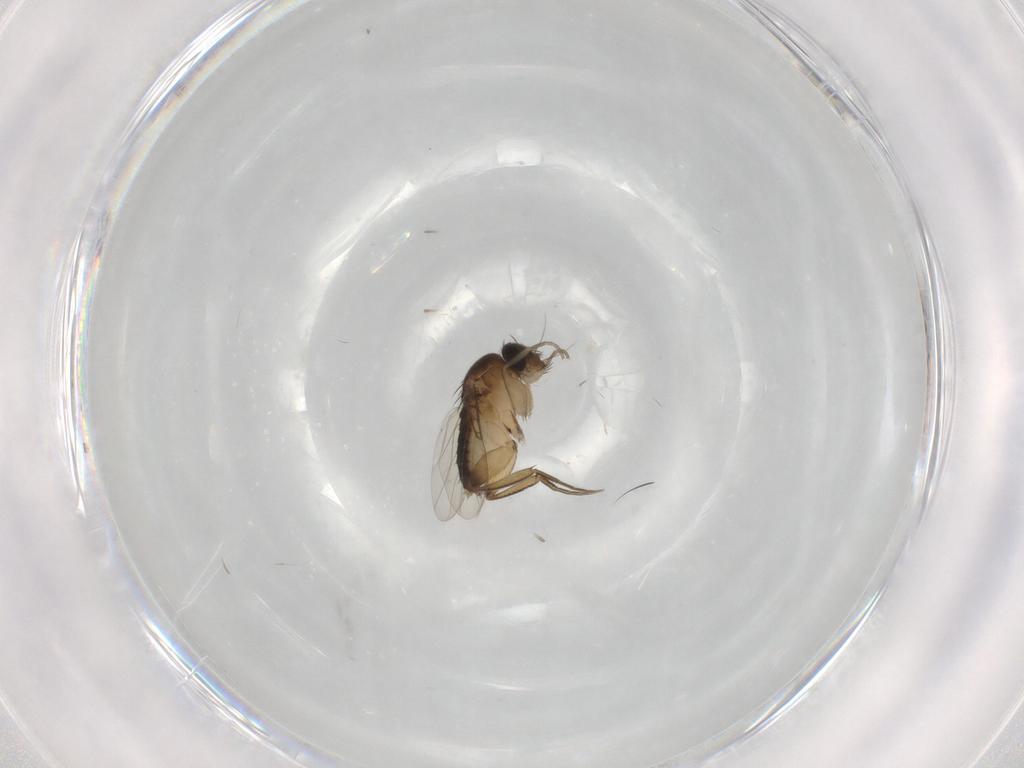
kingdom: Animalia
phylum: Arthropoda
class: Insecta
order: Diptera
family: Phoridae
